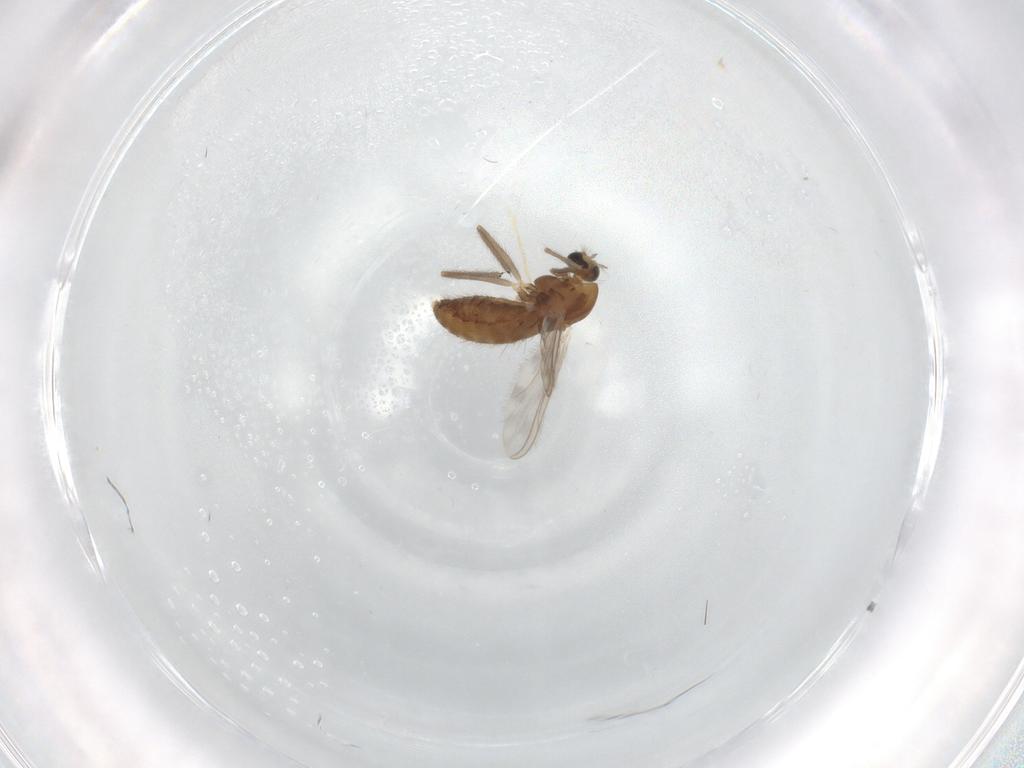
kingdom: Animalia
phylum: Arthropoda
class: Insecta
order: Diptera
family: Chironomidae
